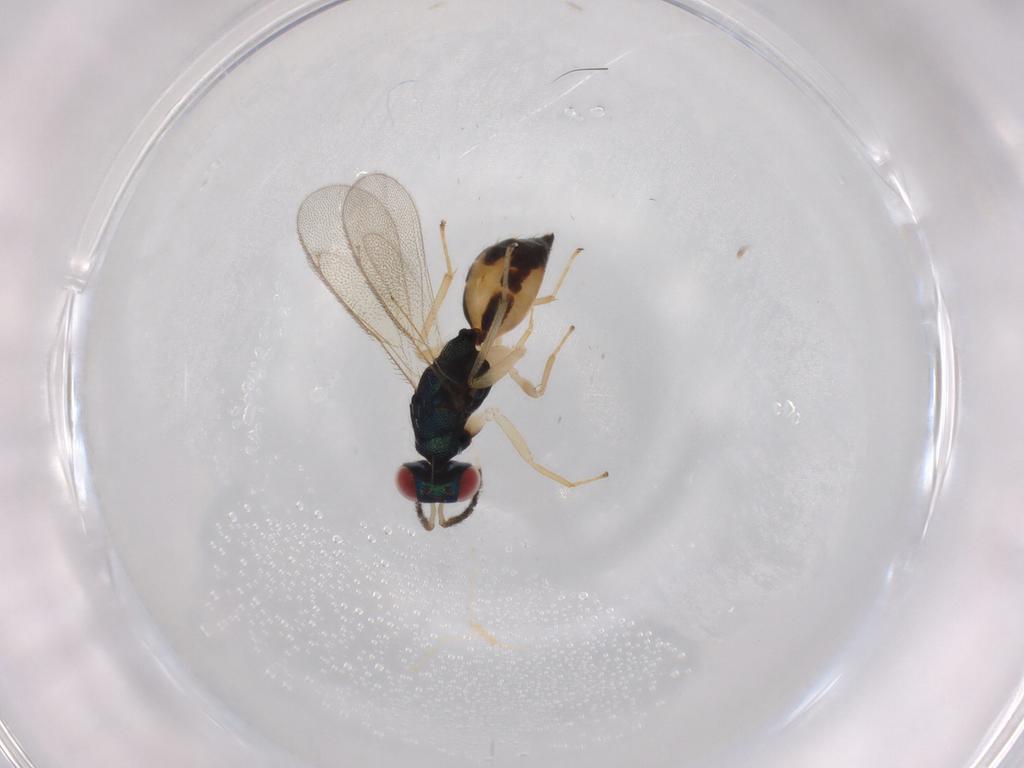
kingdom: Animalia
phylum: Arthropoda
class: Insecta
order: Hymenoptera
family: Eulophidae
